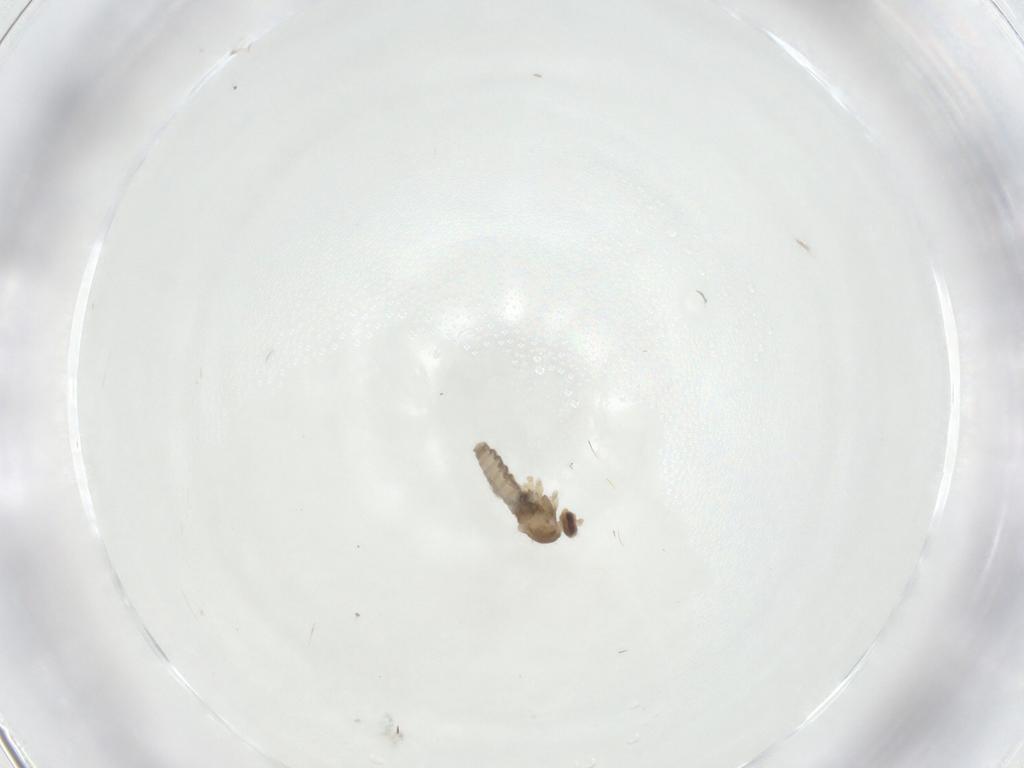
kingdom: Animalia
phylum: Arthropoda
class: Insecta
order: Diptera
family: Cecidomyiidae
